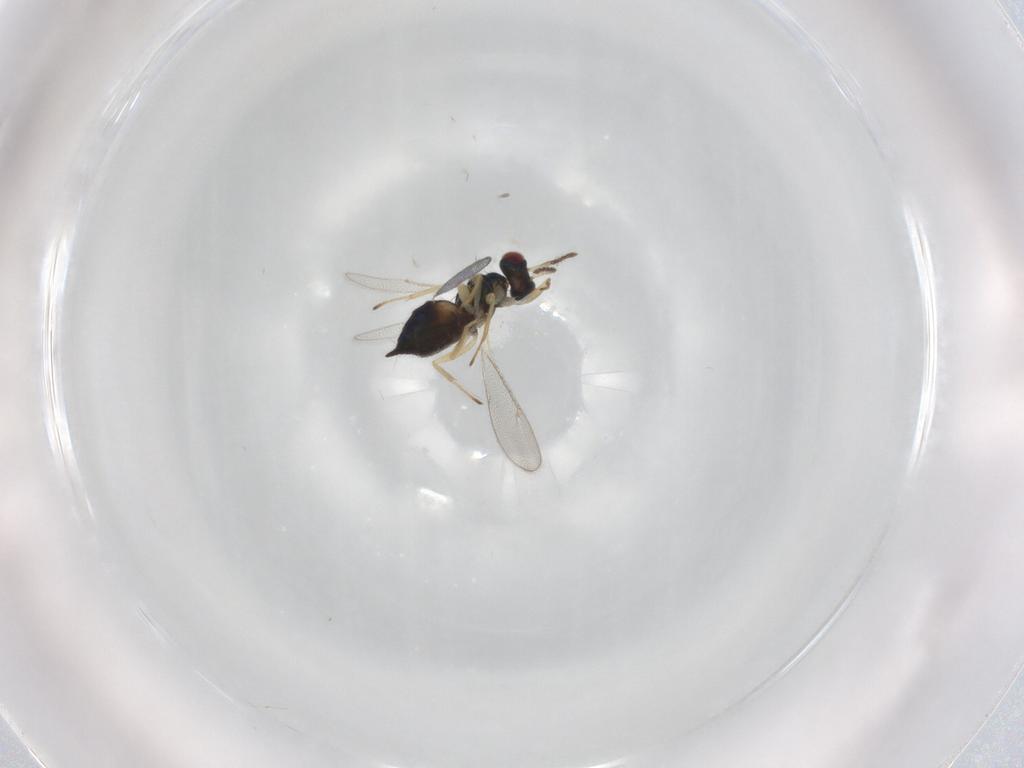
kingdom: Animalia
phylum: Arthropoda
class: Insecta
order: Hymenoptera
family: Eulophidae
